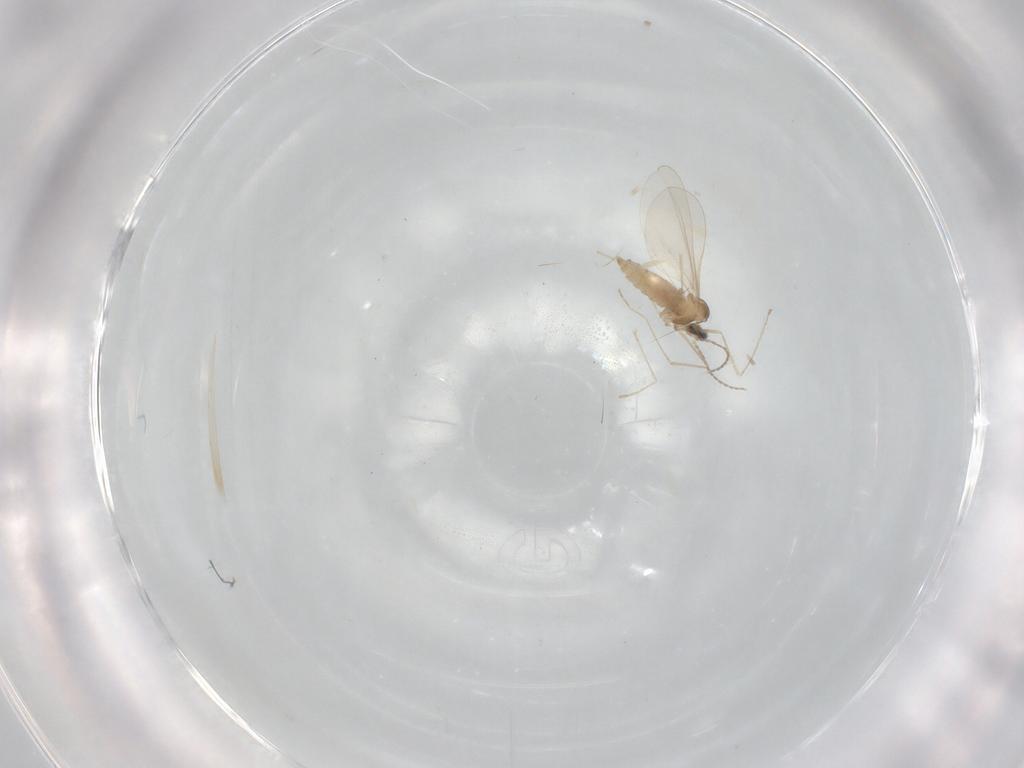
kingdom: Animalia
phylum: Arthropoda
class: Insecta
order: Diptera
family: Cecidomyiidae
